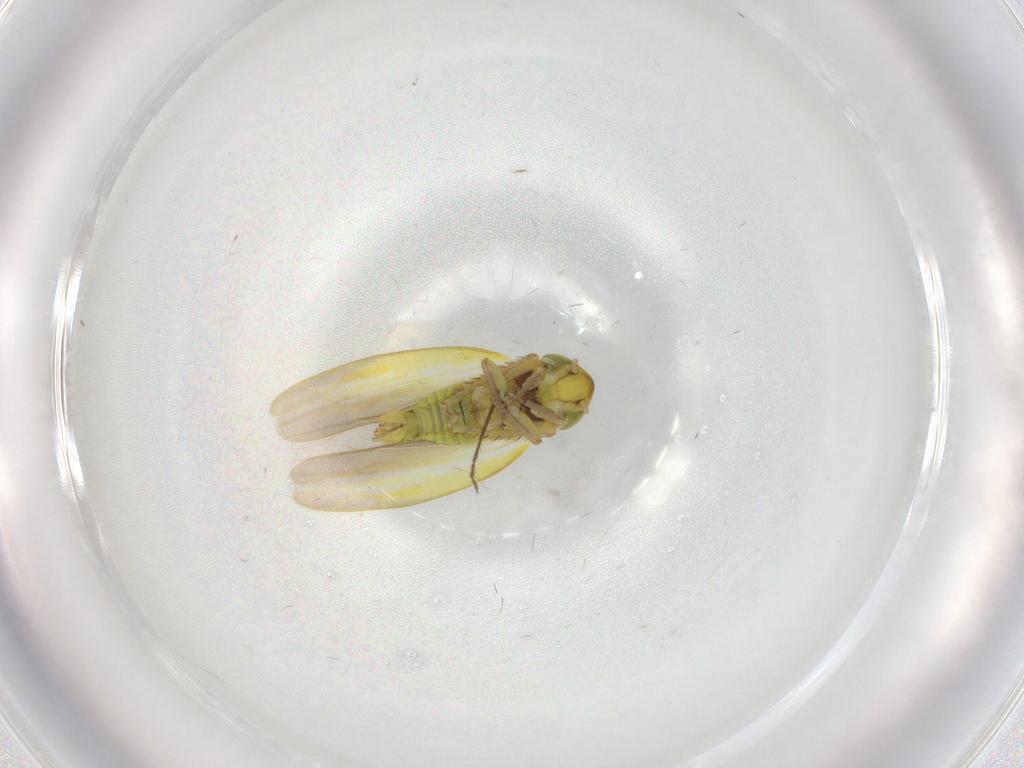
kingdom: Animalia
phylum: Arthropoda
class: Insecta
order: Hemiptera
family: Cicadellidae
